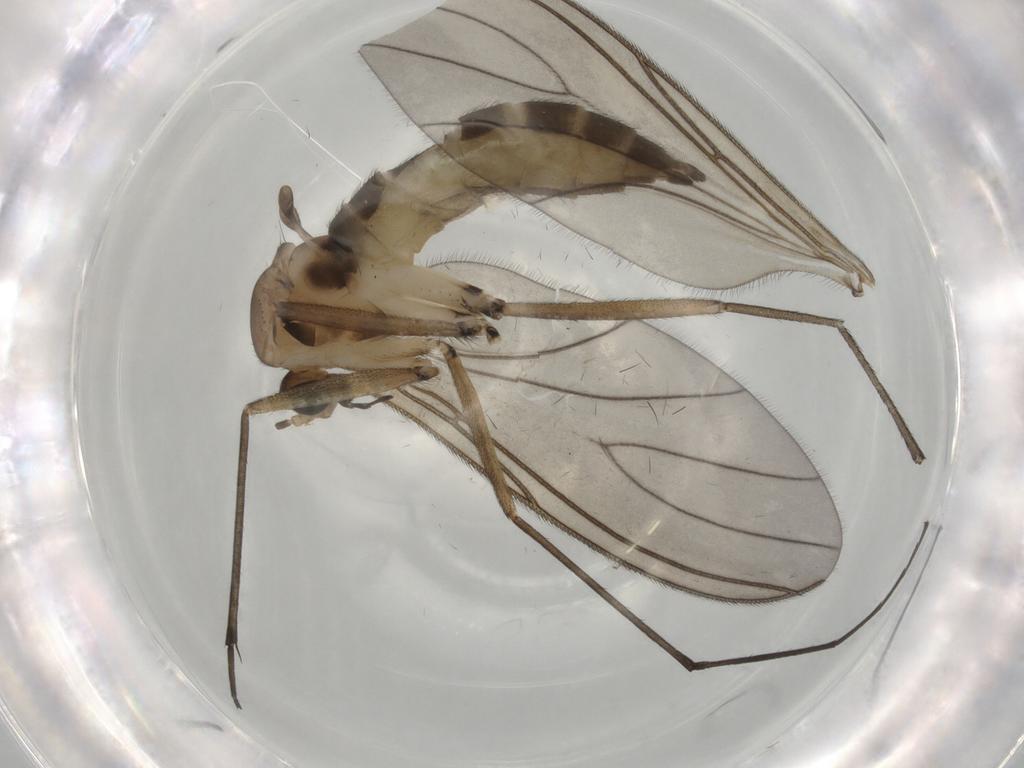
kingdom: Animalia
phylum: Arthropoda
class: Insecta
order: Diptera
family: Sciaridae
